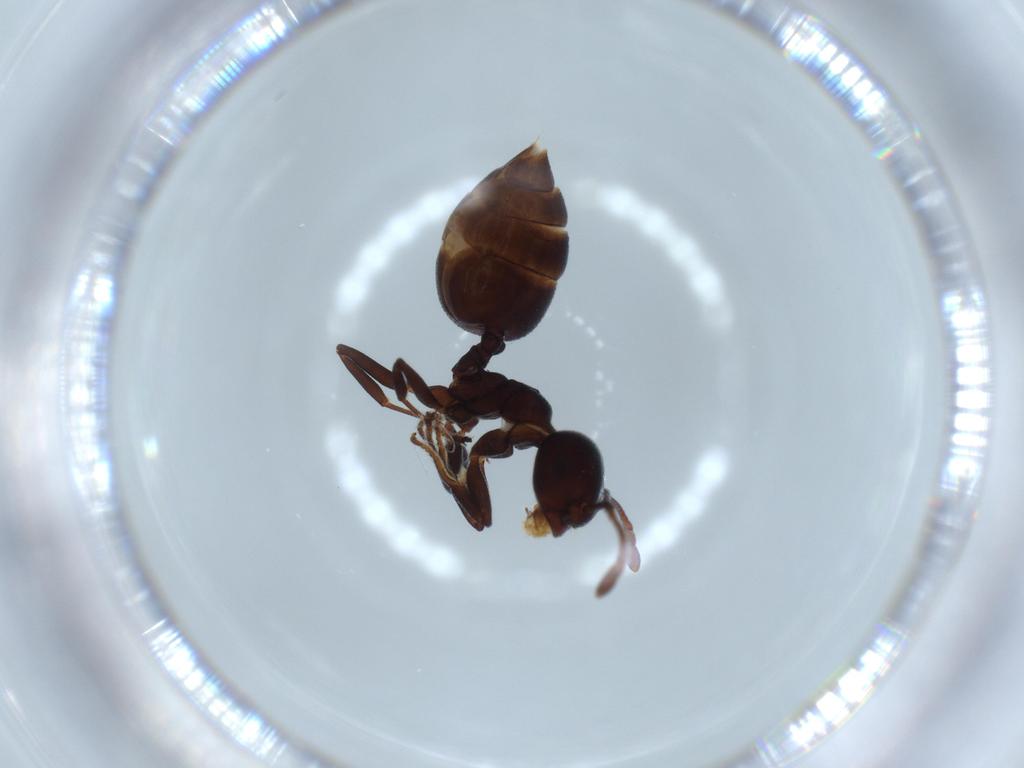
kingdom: Animalia
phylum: Arthropoda
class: Insecta
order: Hymenoptera
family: Formicidae
